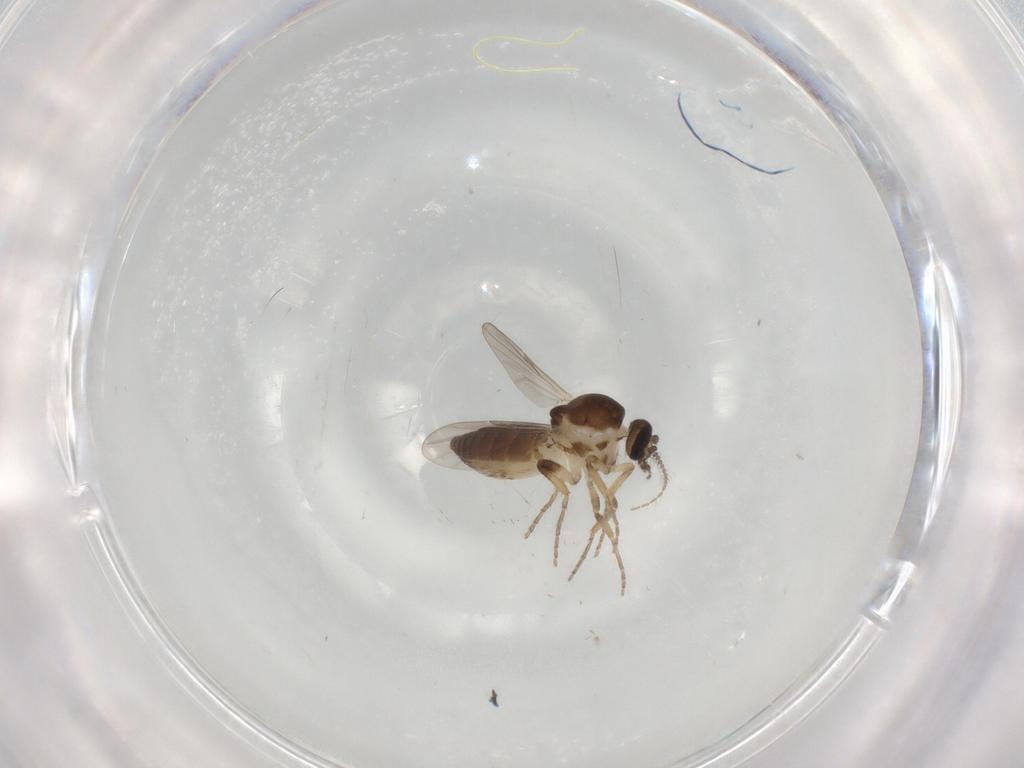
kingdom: Animalia
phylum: Arthropoda
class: Insecta
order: Diptera
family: Ceratopogonidae
